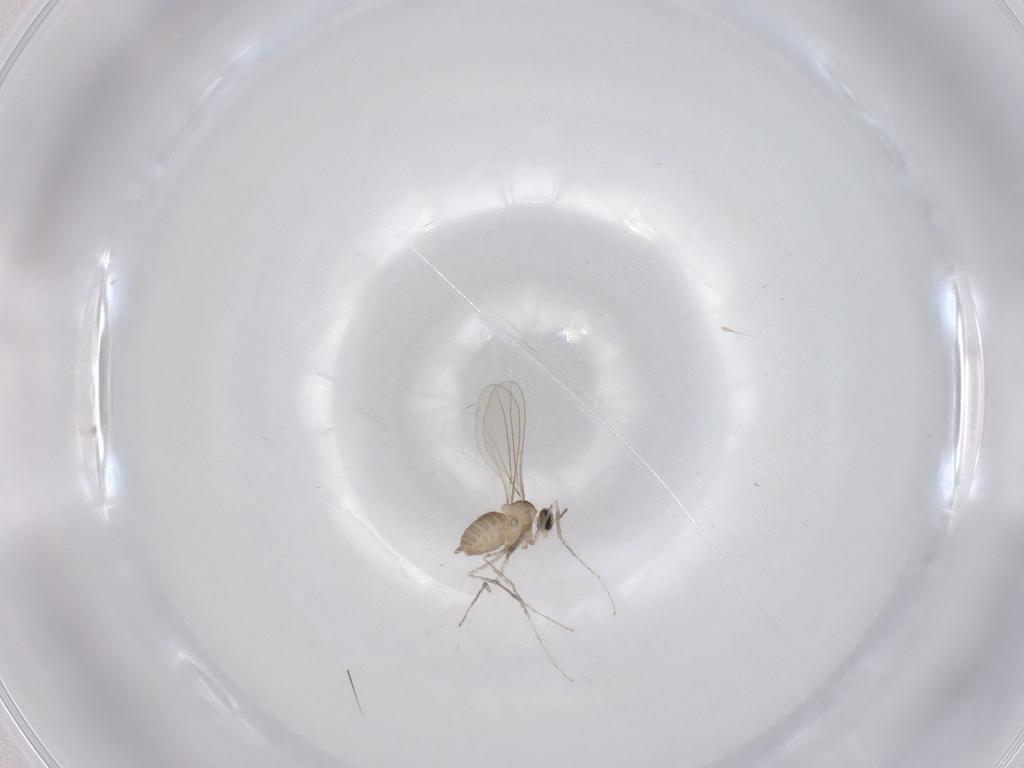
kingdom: Animalia
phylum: Arthropoda
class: Insecta
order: Diptera
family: Cecidomyiidae
